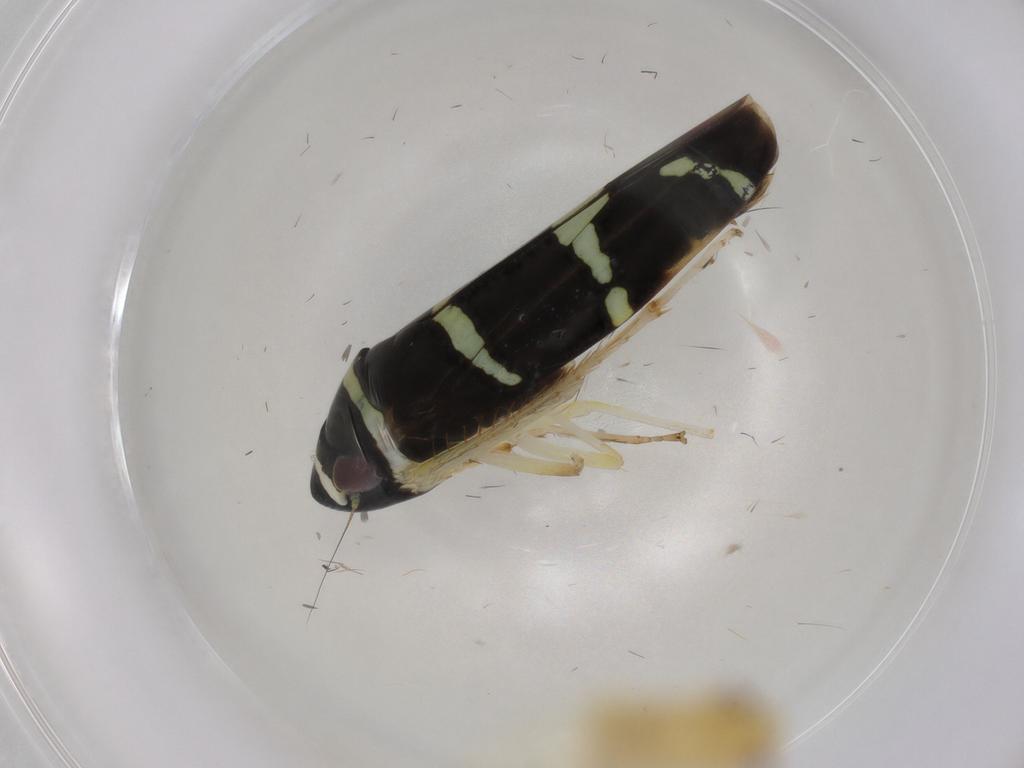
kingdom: Animalia
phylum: Arthropoda
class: Insecta
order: Hemiptera
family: Cicadellidae
